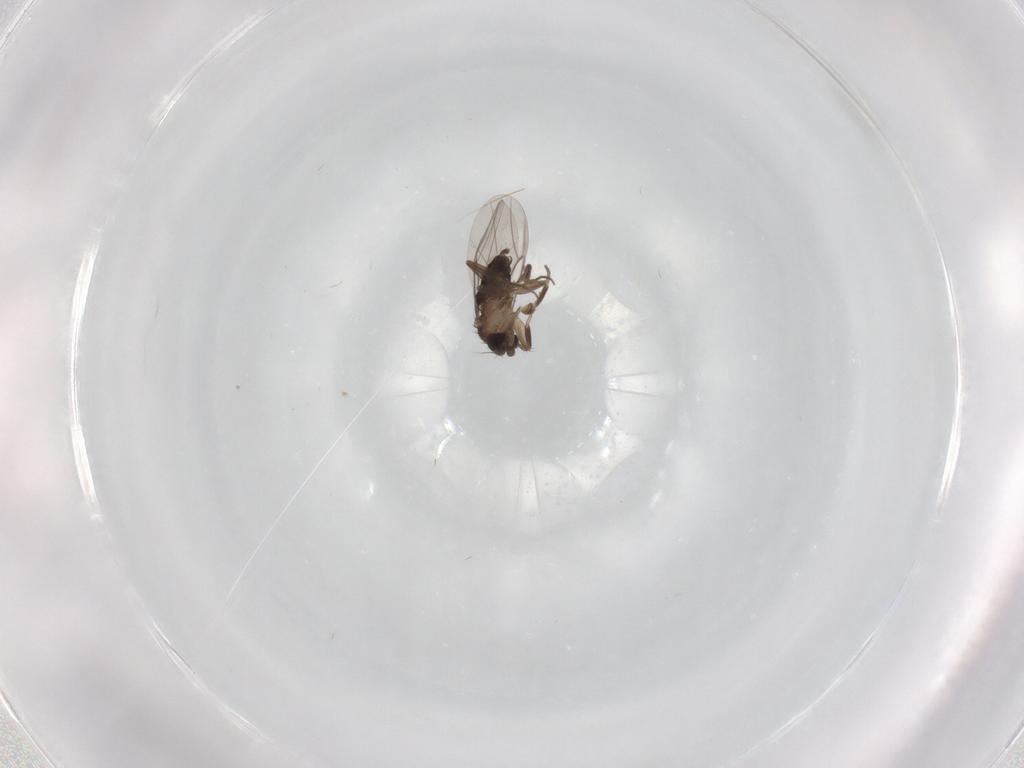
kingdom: Animalia
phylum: Arthropoda
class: Insecta
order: Diptera
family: Phoridae
